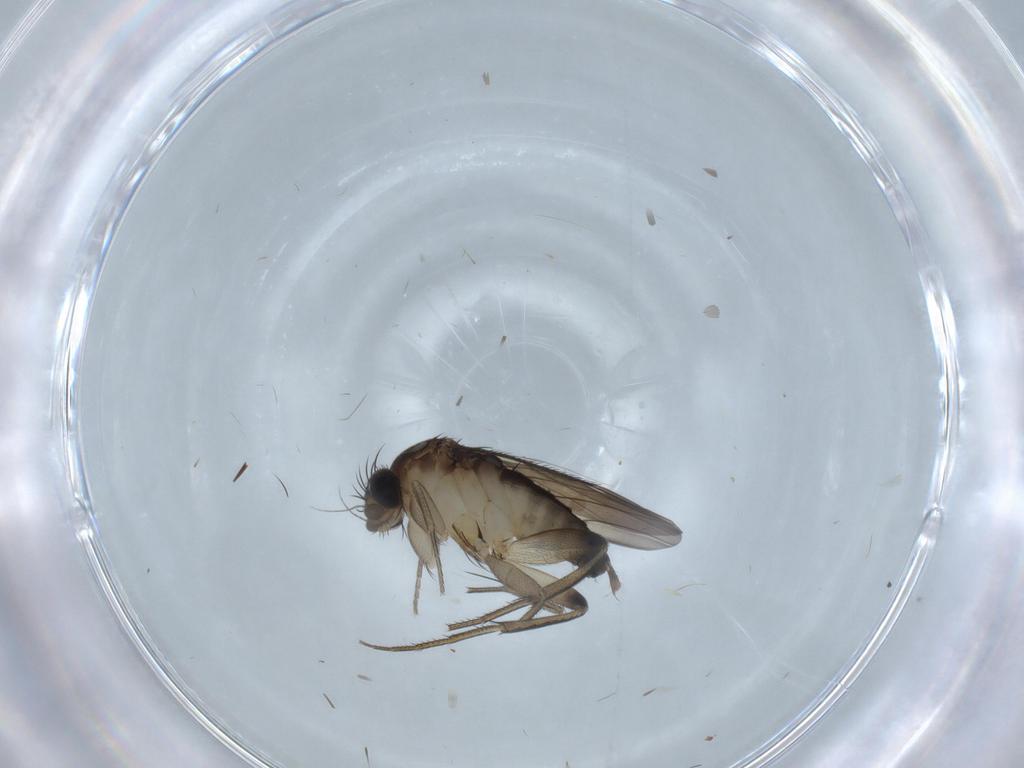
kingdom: Animalia
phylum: Arthropoda
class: Insecta
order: Diptera
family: Phoridae
